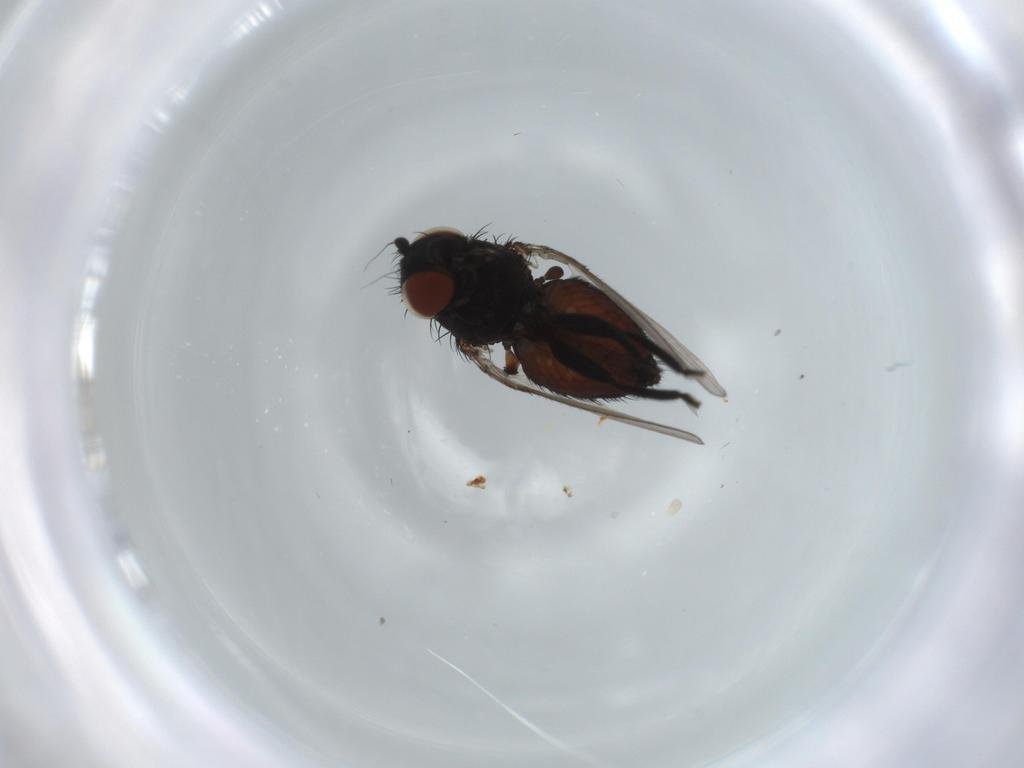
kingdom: Animalia
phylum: Arthropoda
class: Insecta
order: Diptera
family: Milichiidae
